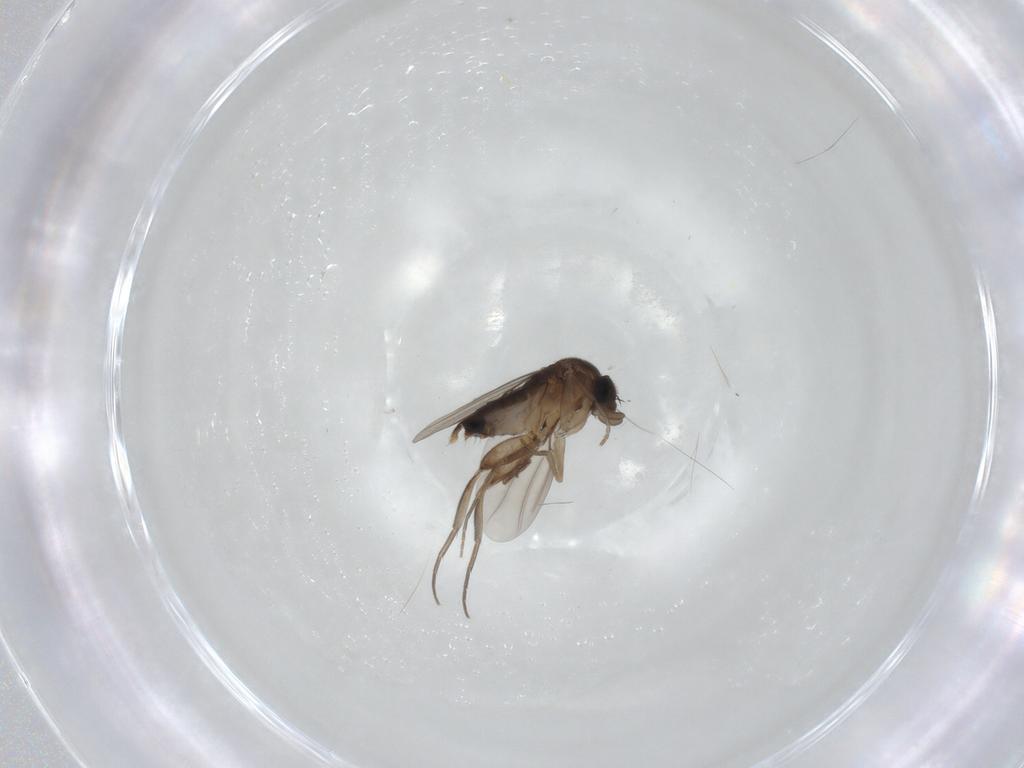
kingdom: Animalia
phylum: Arthropoda
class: Insecta
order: Diptera
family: Phoridae
